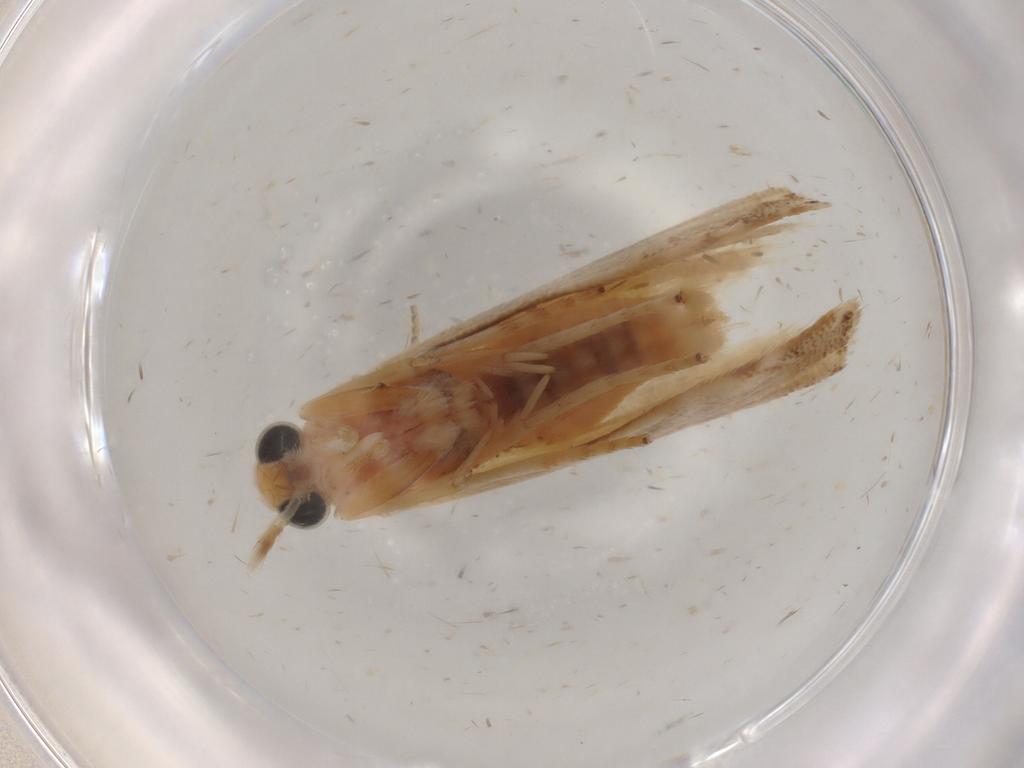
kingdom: Animalia
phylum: Arthropoda
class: Insecta
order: Lepidoptera
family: Pyralidae
